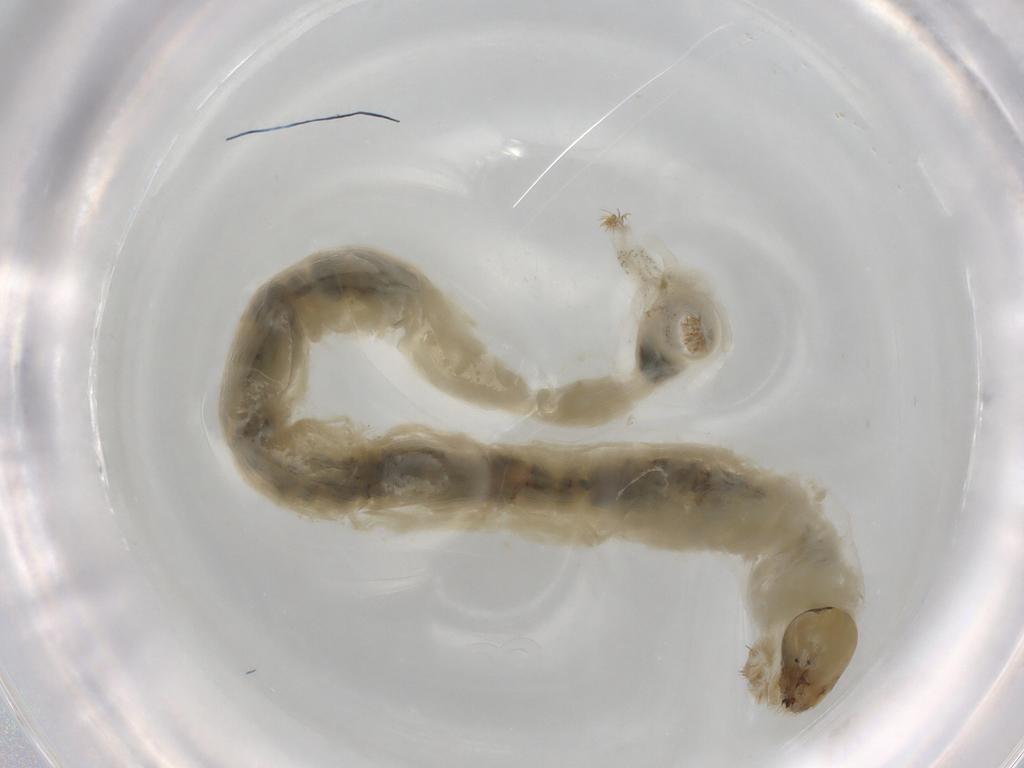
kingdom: Animalia
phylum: Arthropoda
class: Insecta
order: Diptera
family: Chironomidae
